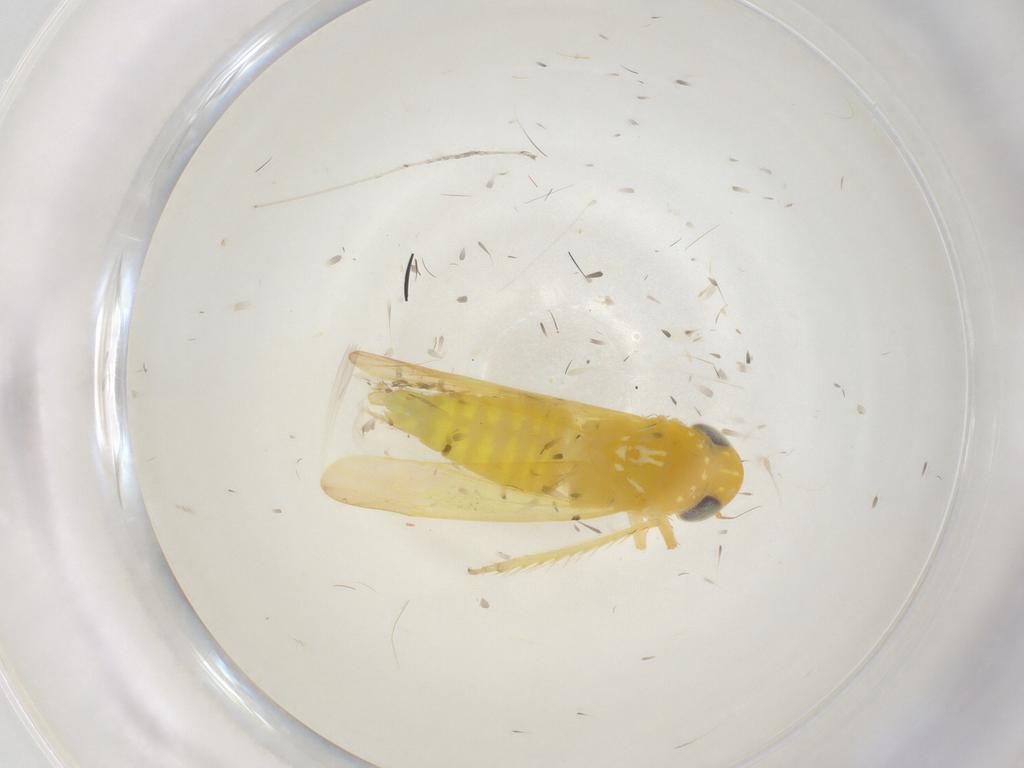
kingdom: Animalia
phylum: Arthropoda
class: Insecta
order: Hemiptera
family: Cicadellidae
